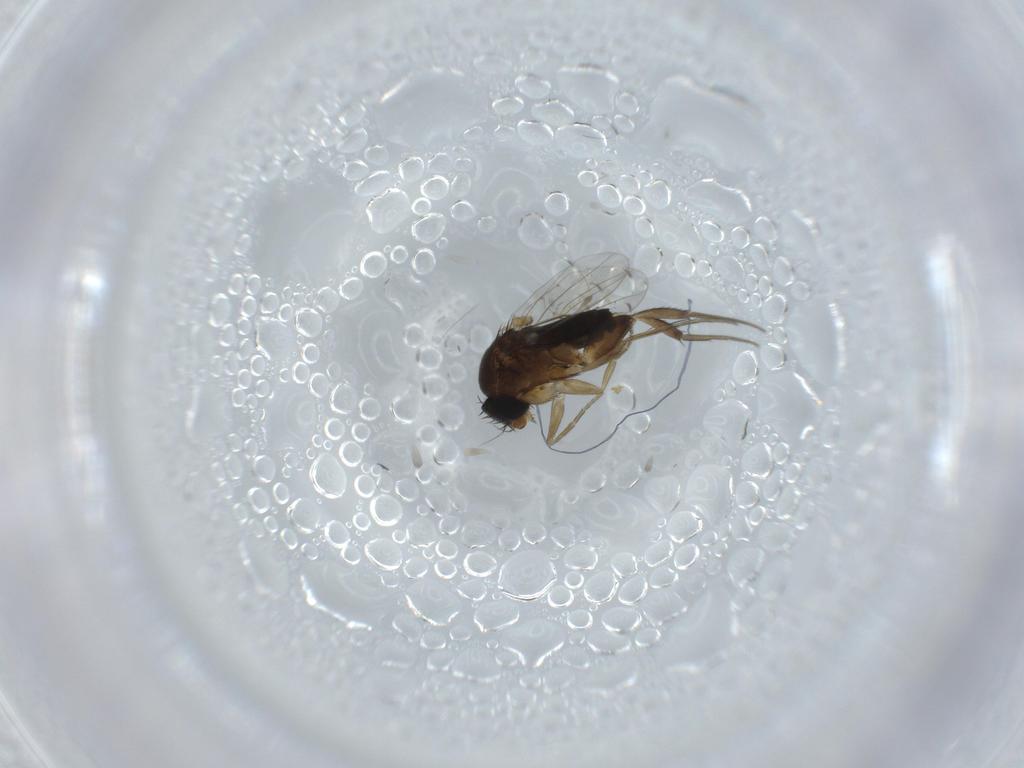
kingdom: Animalia
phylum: Arthropoda
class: Insecta
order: Diptera
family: Phoridae
